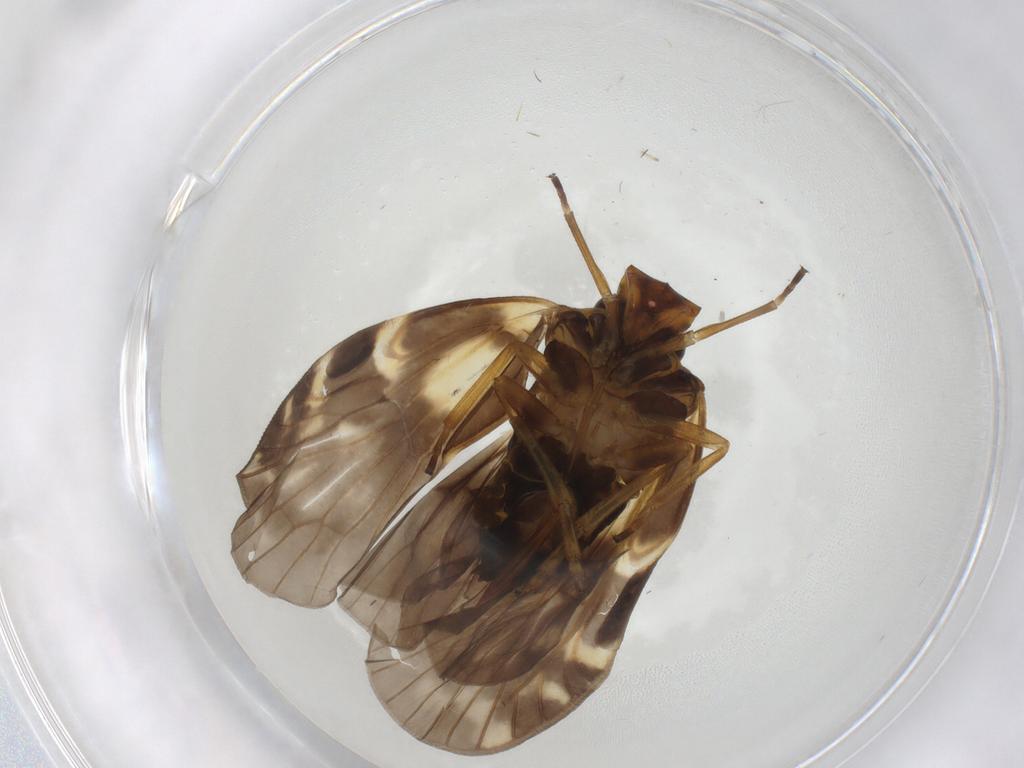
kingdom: Animalia
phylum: Arthropoda
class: Insecta
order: Hemiptera
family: Cixiidae
